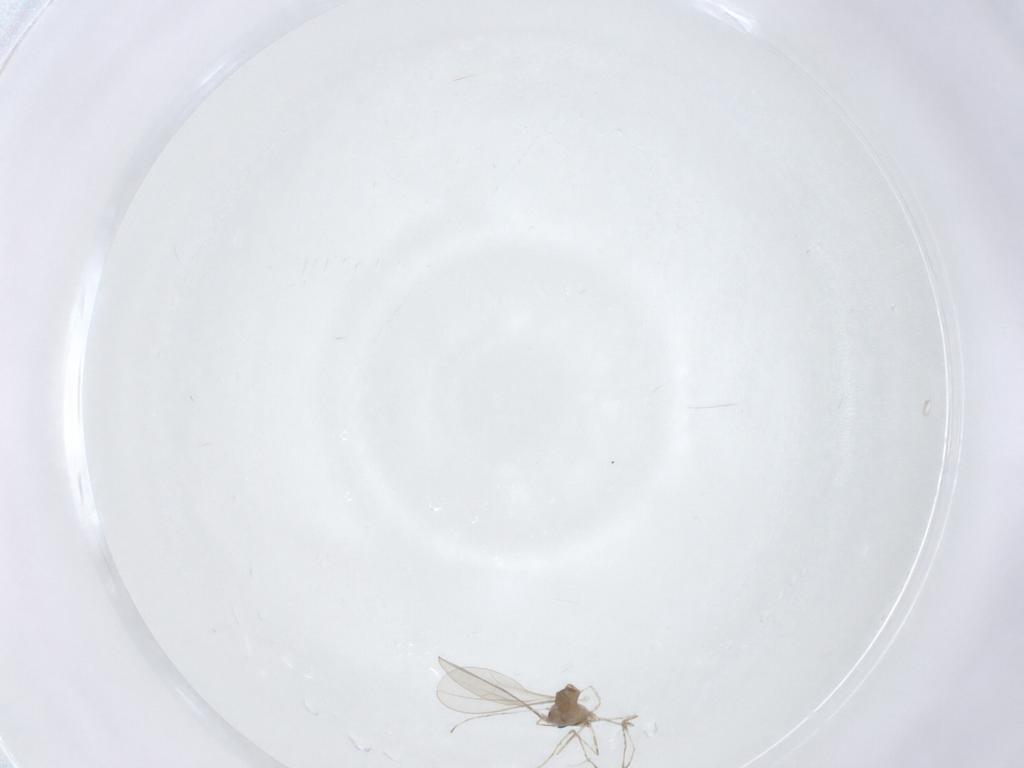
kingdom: Animalia
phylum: Arthropoda
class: Insecta
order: Diptera
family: Cecidomyiidae
